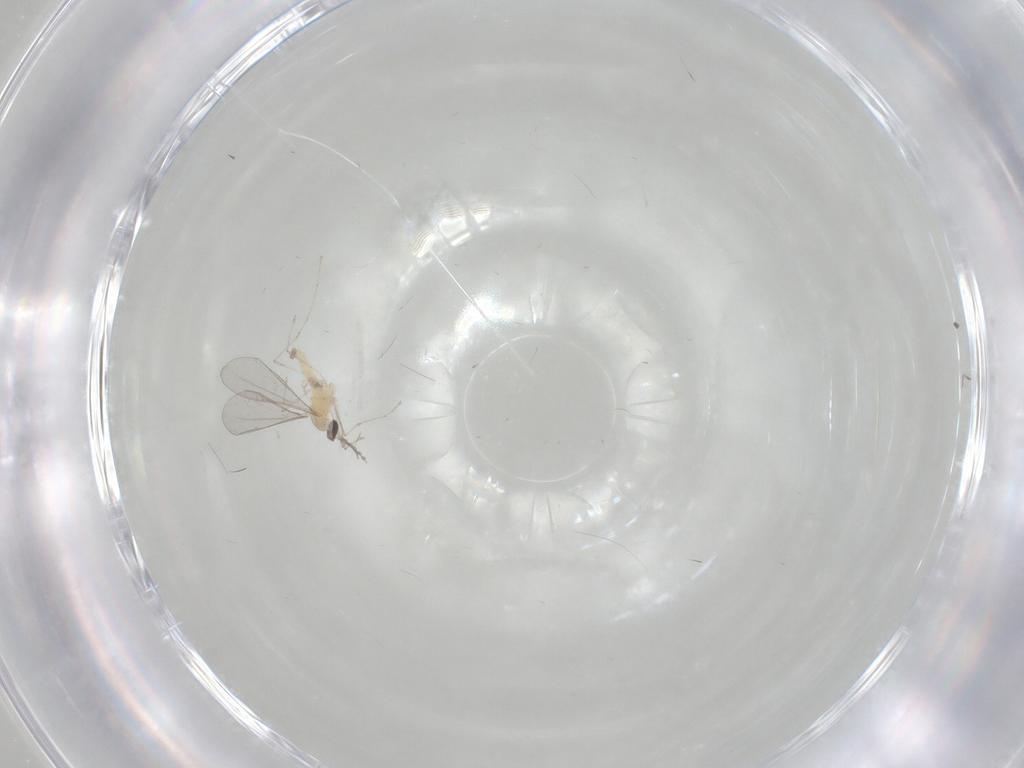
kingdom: Animalia
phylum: Arthropoda
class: Insecta
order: Diptera
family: Cecidomyiidae
